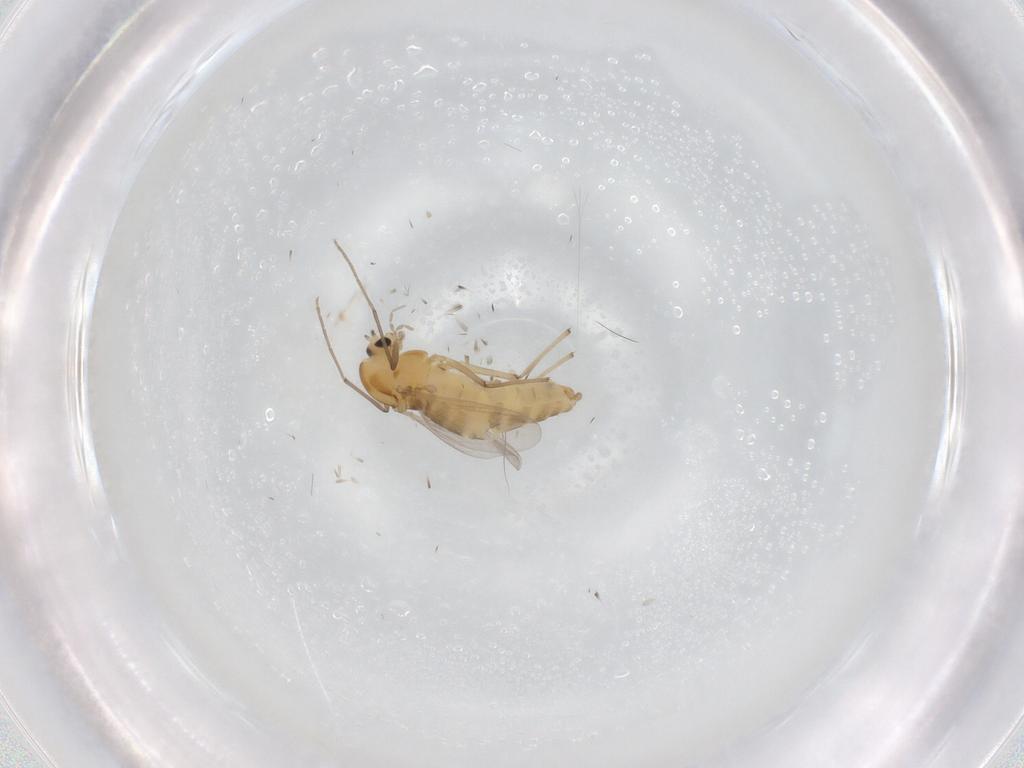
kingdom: Animalia
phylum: Arthropoda
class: Insecta
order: Diptera
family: Chironomidae
